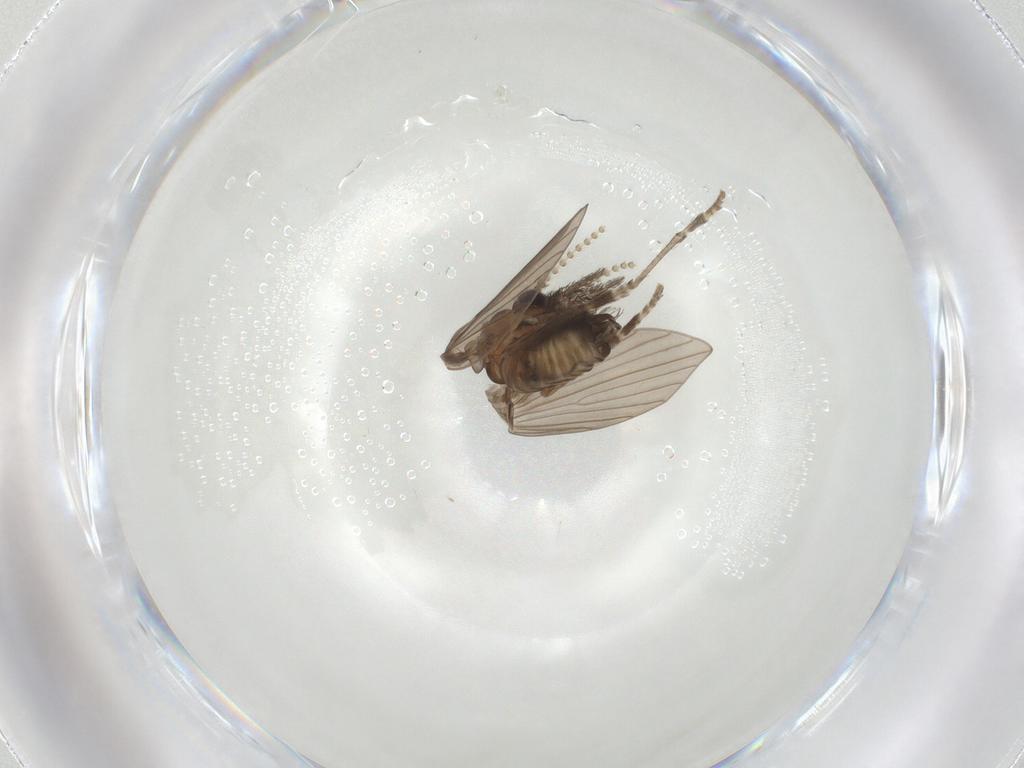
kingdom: Animalia
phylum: Arthropoda
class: Insecta
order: Diptera
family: Psychodidae
